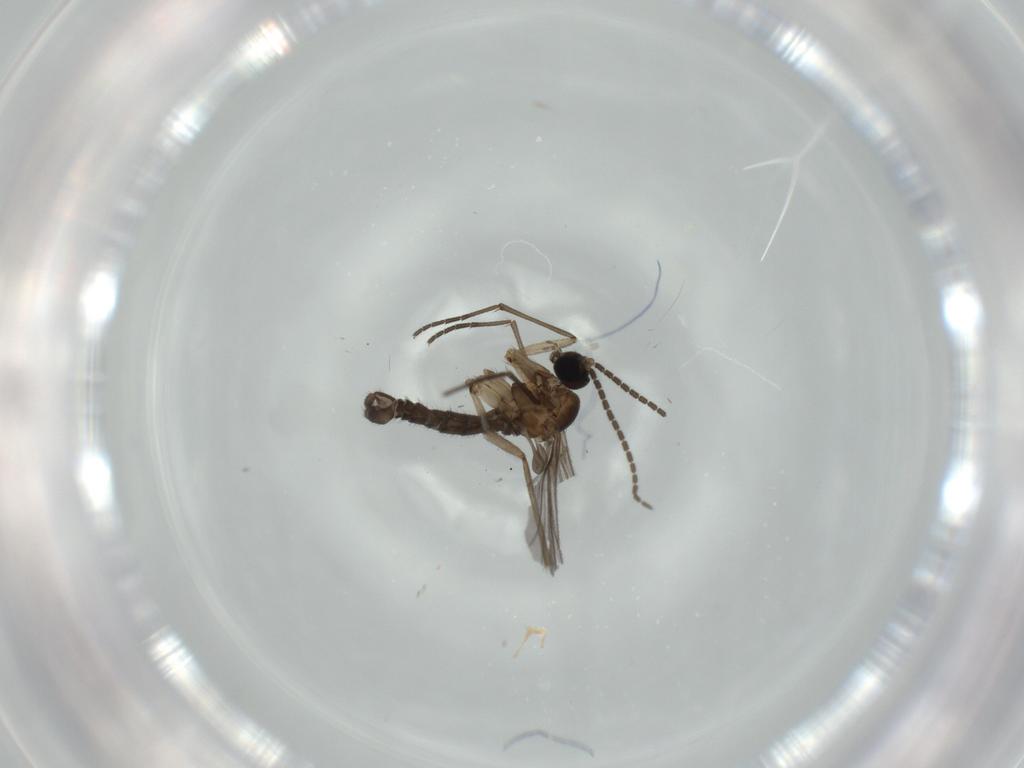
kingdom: Animalia
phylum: Arthropoda
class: Insecta
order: Diptera
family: Sciaridae
